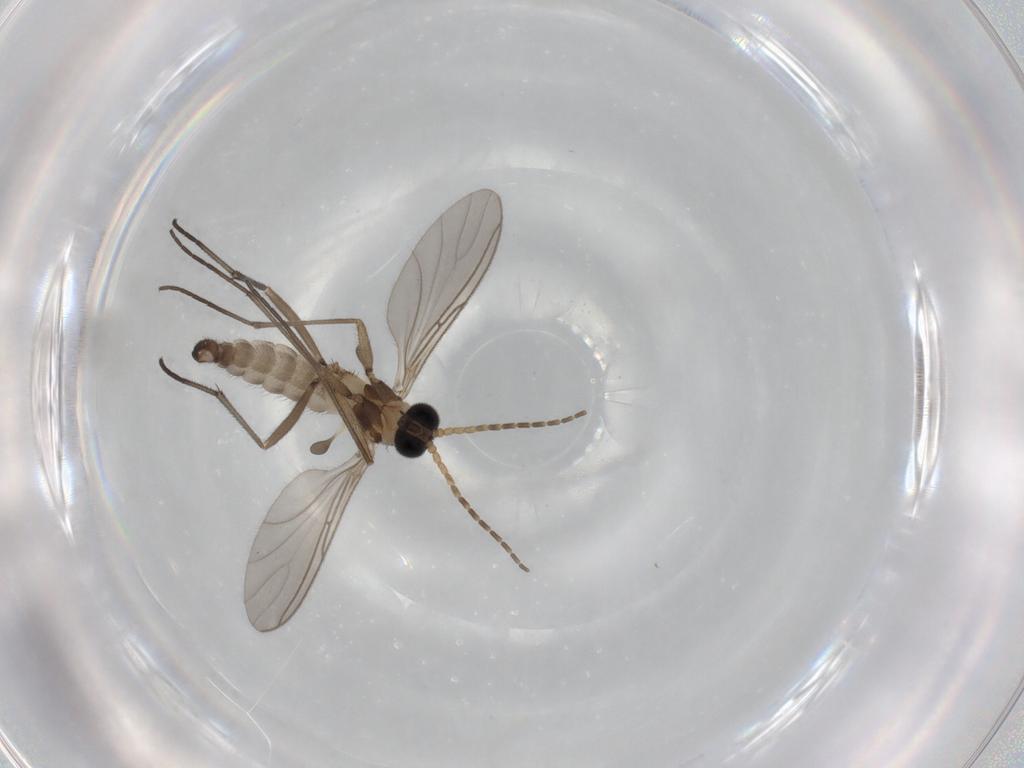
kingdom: Animalia
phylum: Arthropoda
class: Insecta
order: Diptera
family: Sciaridae
